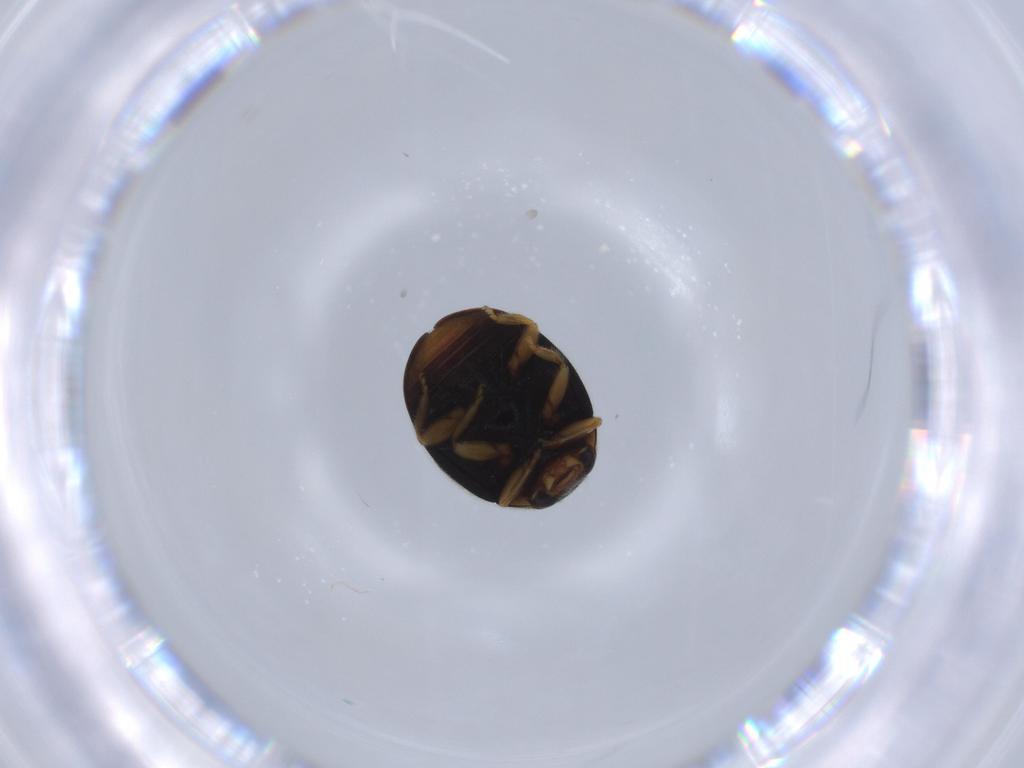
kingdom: Animalia
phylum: Arthropoda
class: Insecta
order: Coleoptera
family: Coccinellidae
